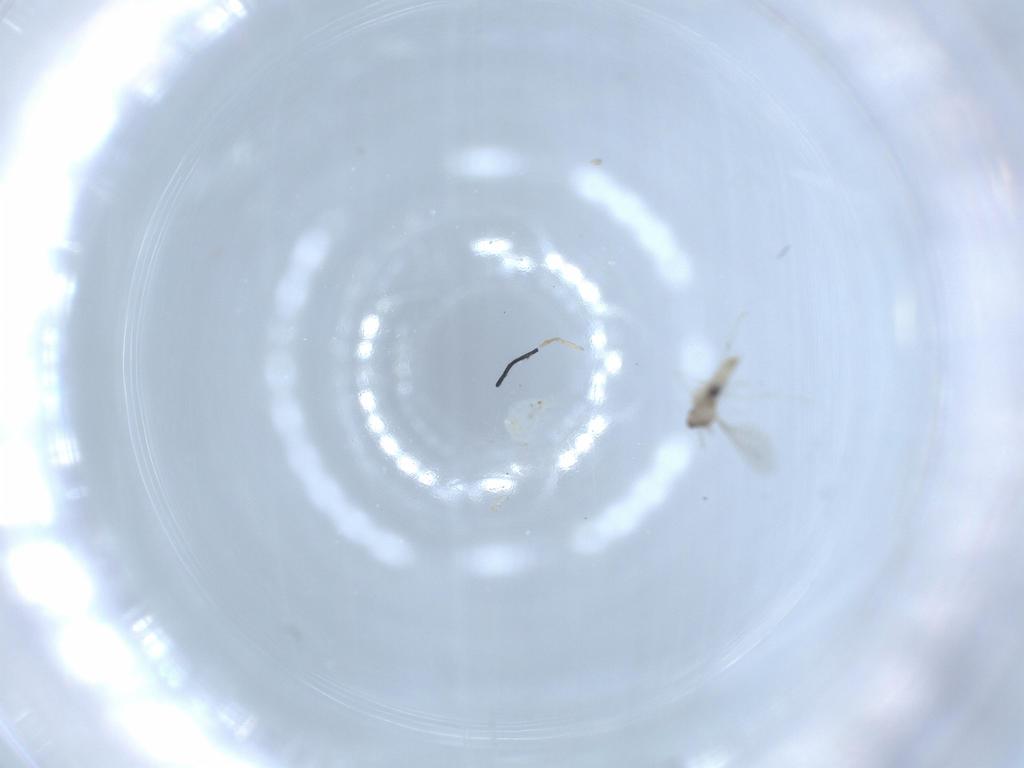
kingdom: Animalia
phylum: Arthropoda
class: Insecta
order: Diptera
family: Cecidomyiidae
